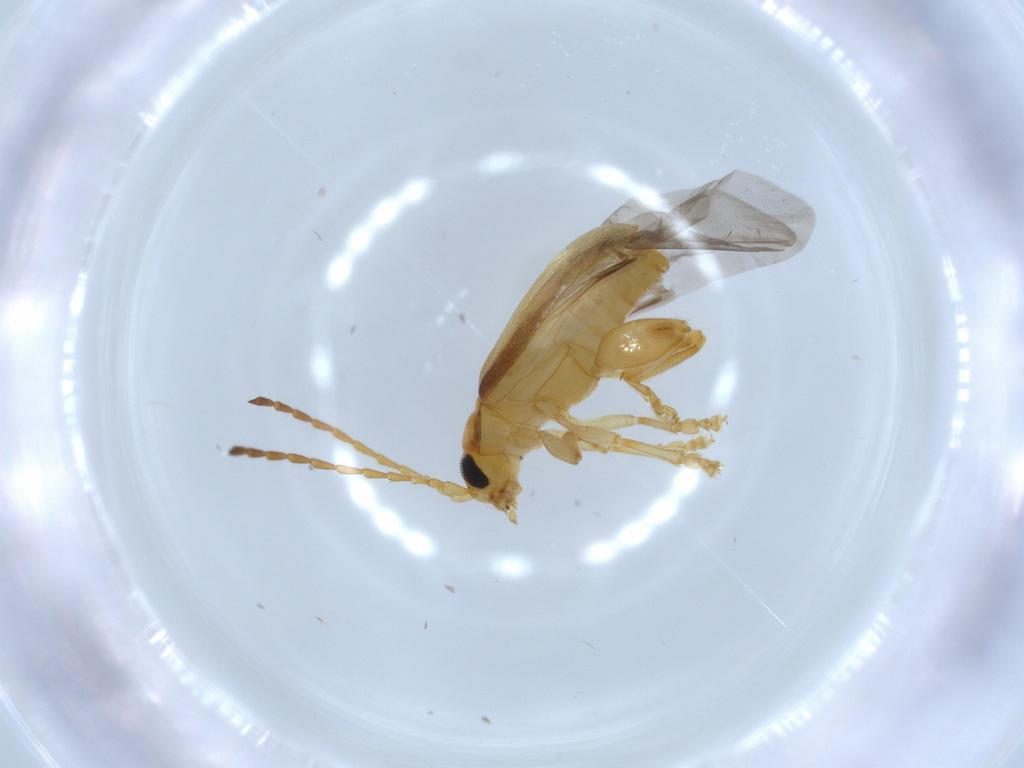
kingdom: Animalia
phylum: Arthropoda
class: Insecta
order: Coleoptera
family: Chrysomelidae
